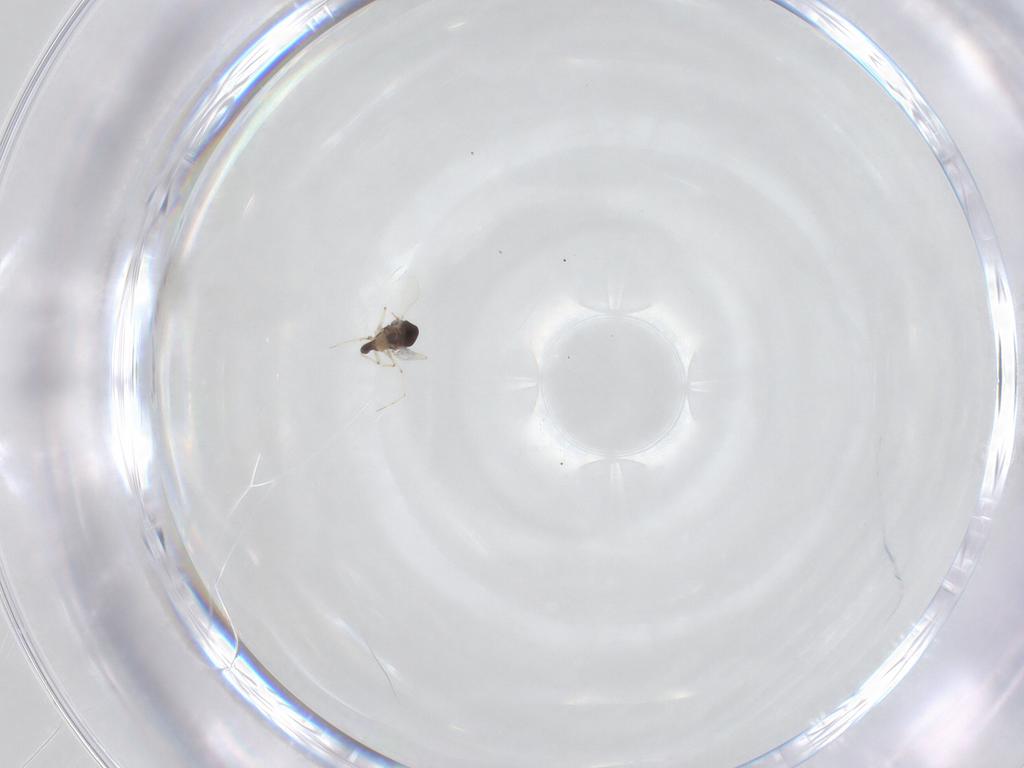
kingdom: Animalia
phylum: Arthropoda
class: Insecta
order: Diptera
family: Chironomidae
